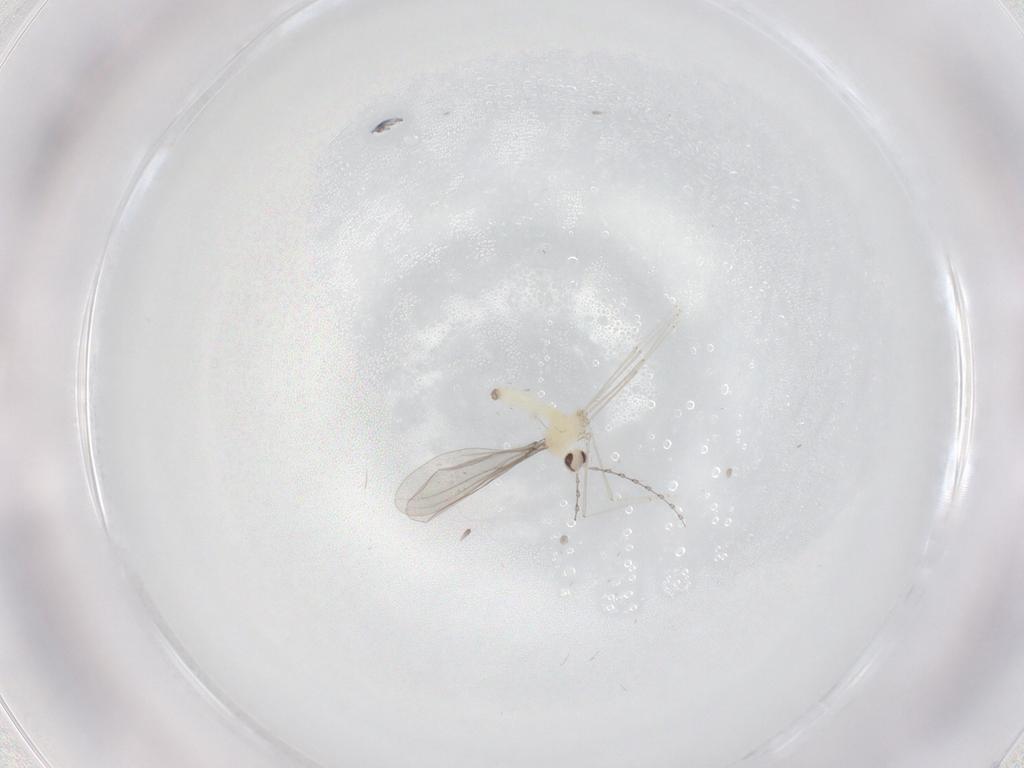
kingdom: Animalia
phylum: Arthropoda
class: Insecta
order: Diptera
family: Cecidomyiidae
